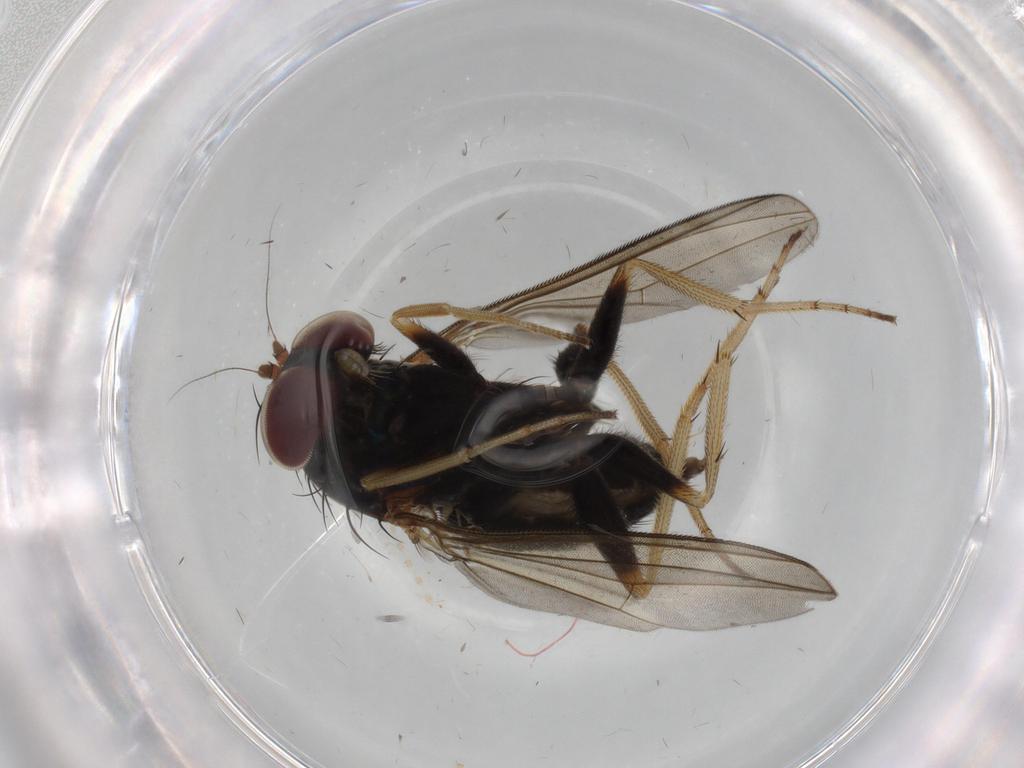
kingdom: Animalia
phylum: Arthropoda
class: Insecta
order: Diptera
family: Dolichopodidae
